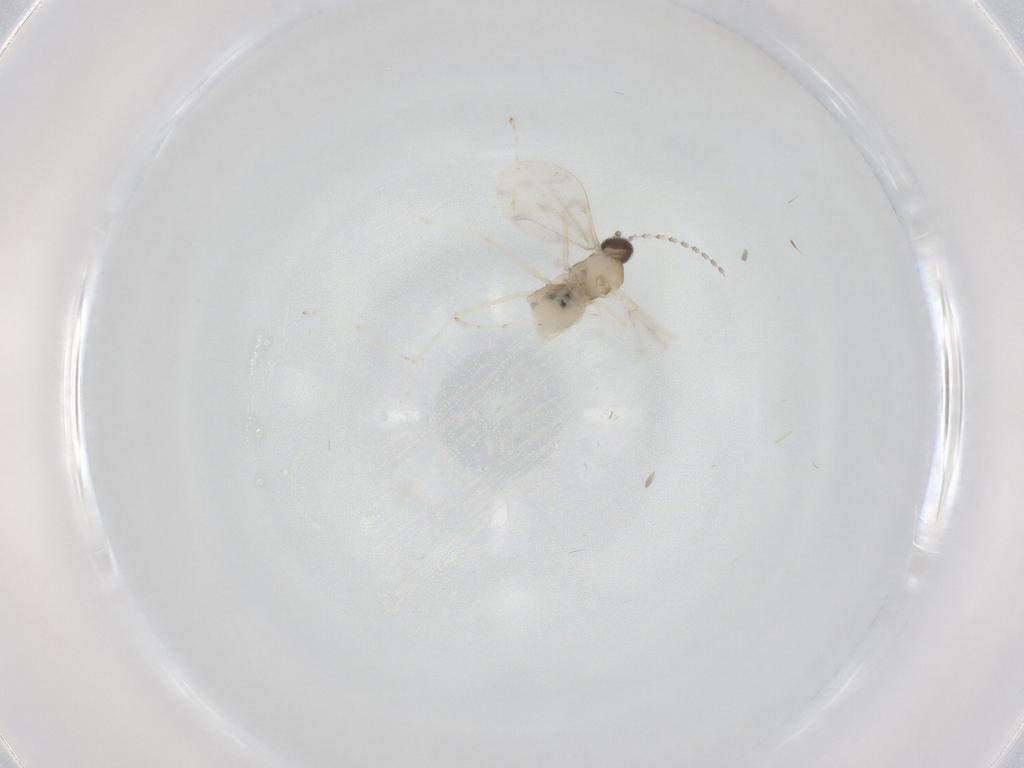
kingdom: Animalia
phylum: Arthropoda
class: Insecta
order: Diptera
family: Cecidomyiidae
